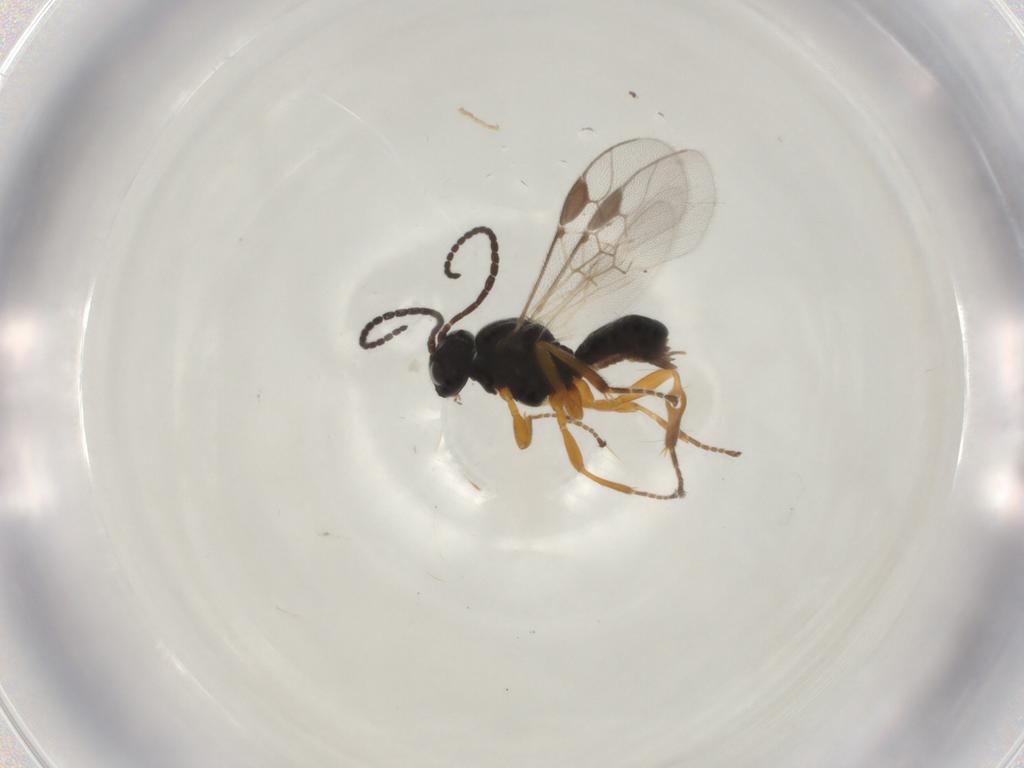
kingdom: Animalia
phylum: Arthropoda
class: Insecta
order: Hymenoptera
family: Braconidae
